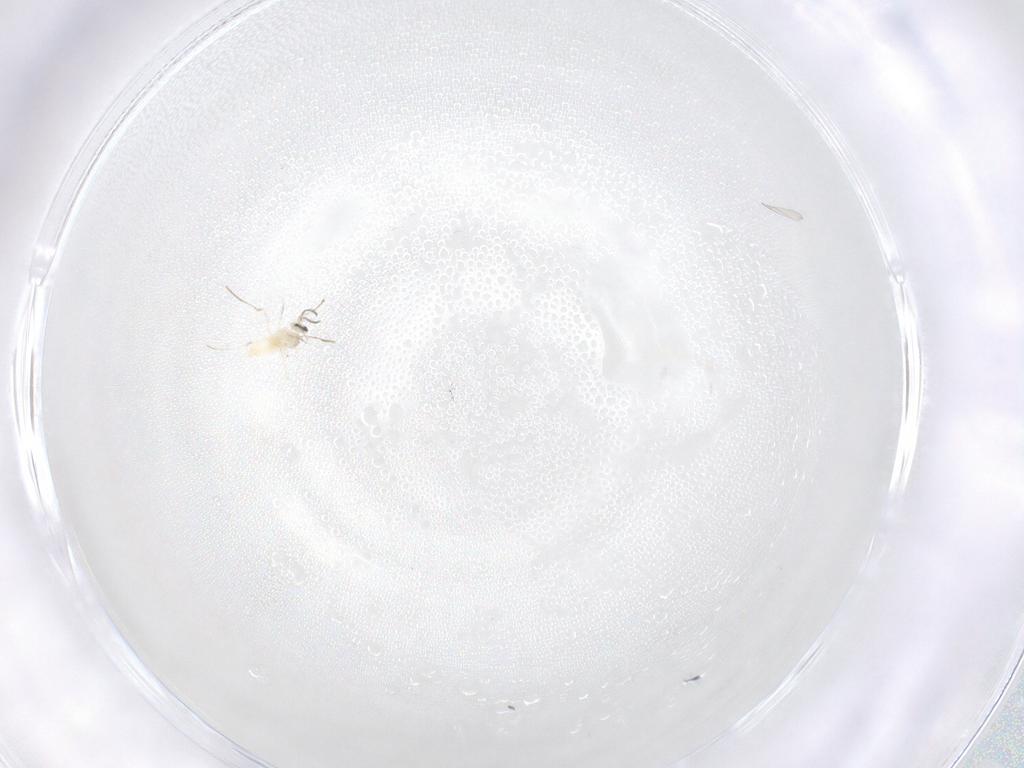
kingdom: Animalia
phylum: Arthropoda
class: Insecta
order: Diptera
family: Cecidomyiidae
